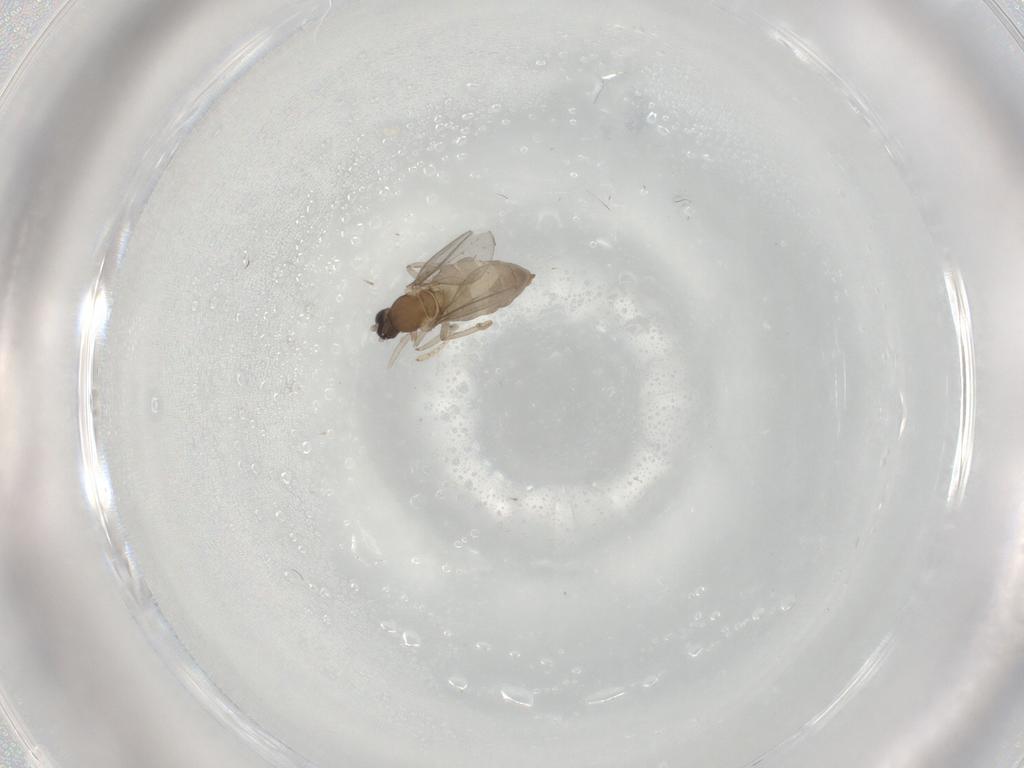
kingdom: Animalia
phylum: Arthropoda
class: Insecta
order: Diptera
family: Cecidomyiidae
